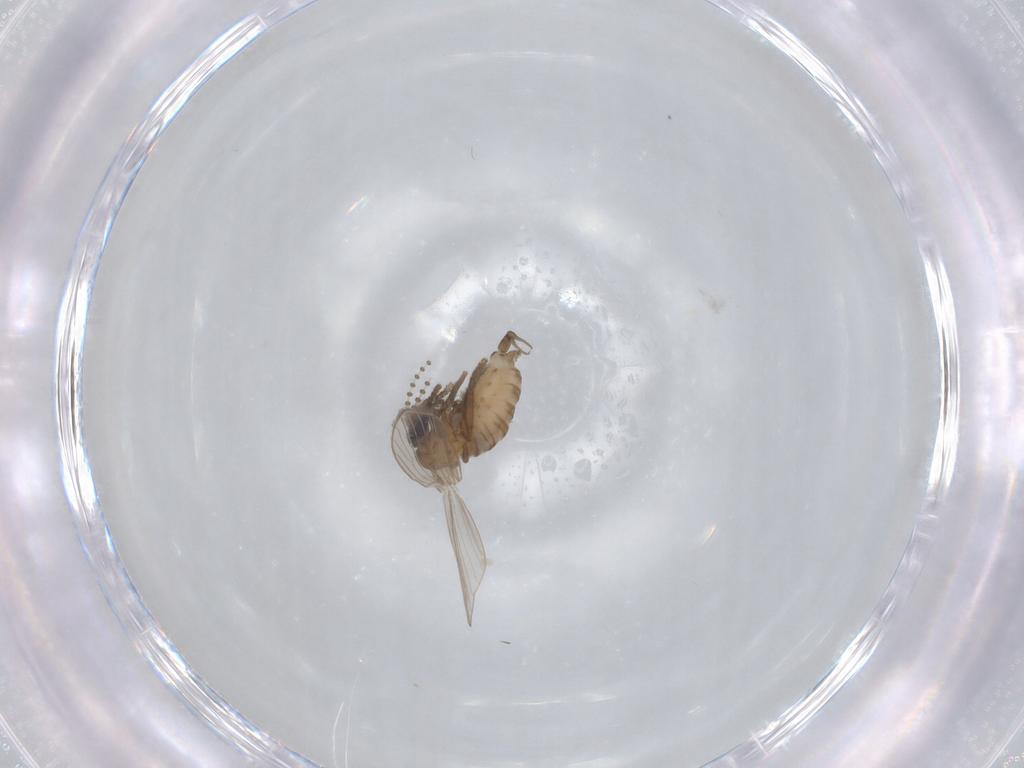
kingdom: Animalia
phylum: Arthropoda
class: Insecta
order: Diptera
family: Psychodidae
